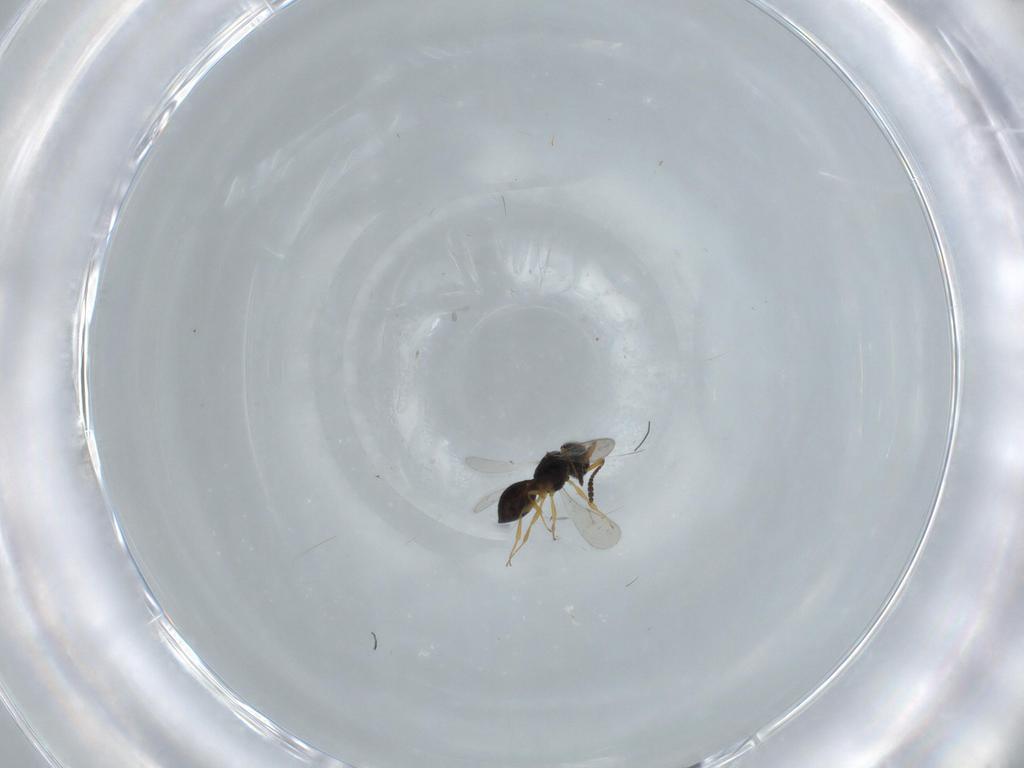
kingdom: Animalia
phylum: Arthropoda
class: Insecta
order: Hymenoptera
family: Scelionidae
